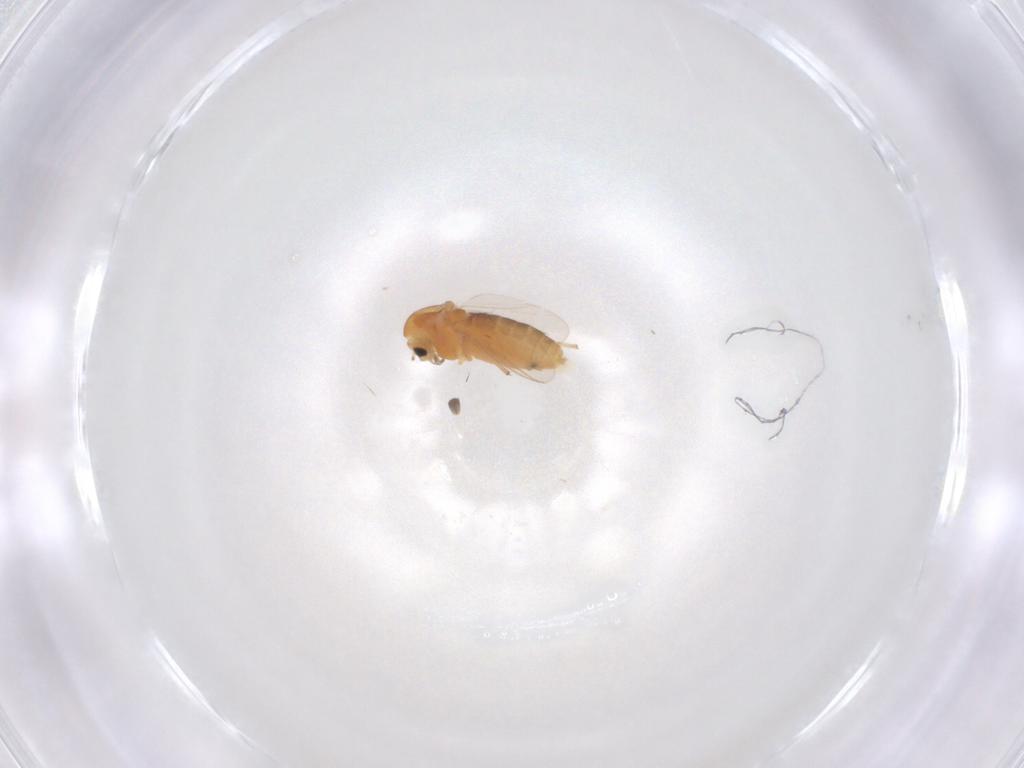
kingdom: Animalia
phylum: Arthropoda
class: Insecta
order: Diptera
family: Chironomidae
